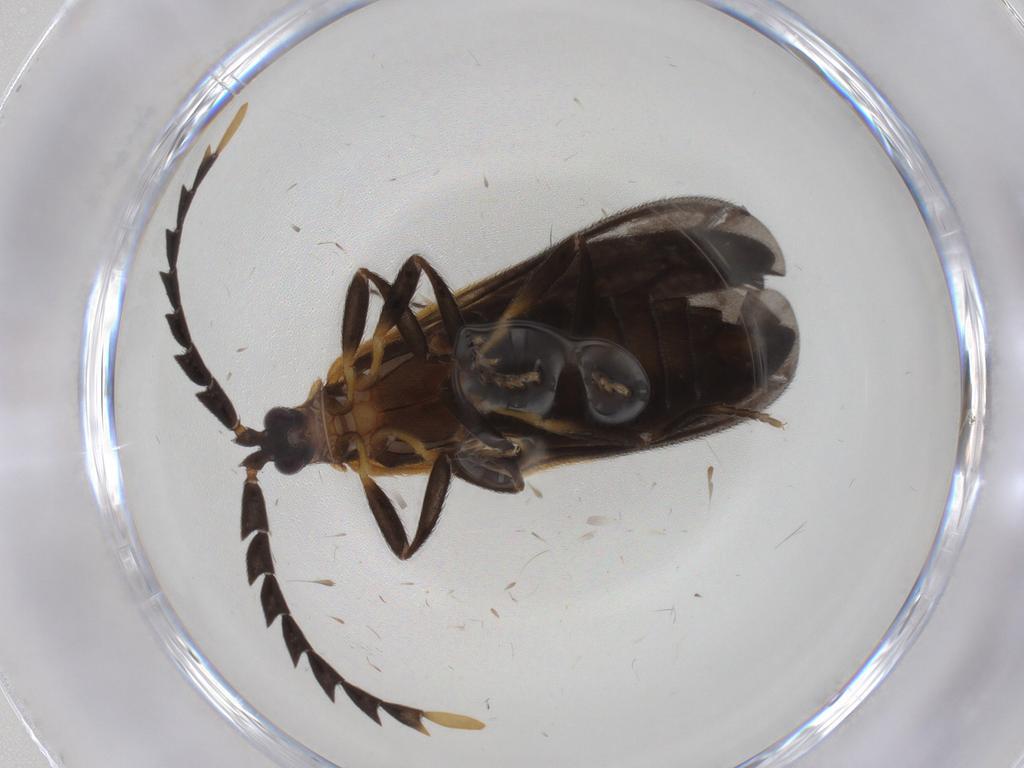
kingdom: Animalia
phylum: Arthropoda
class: Insecta
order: Coleoptera
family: Lycidae
